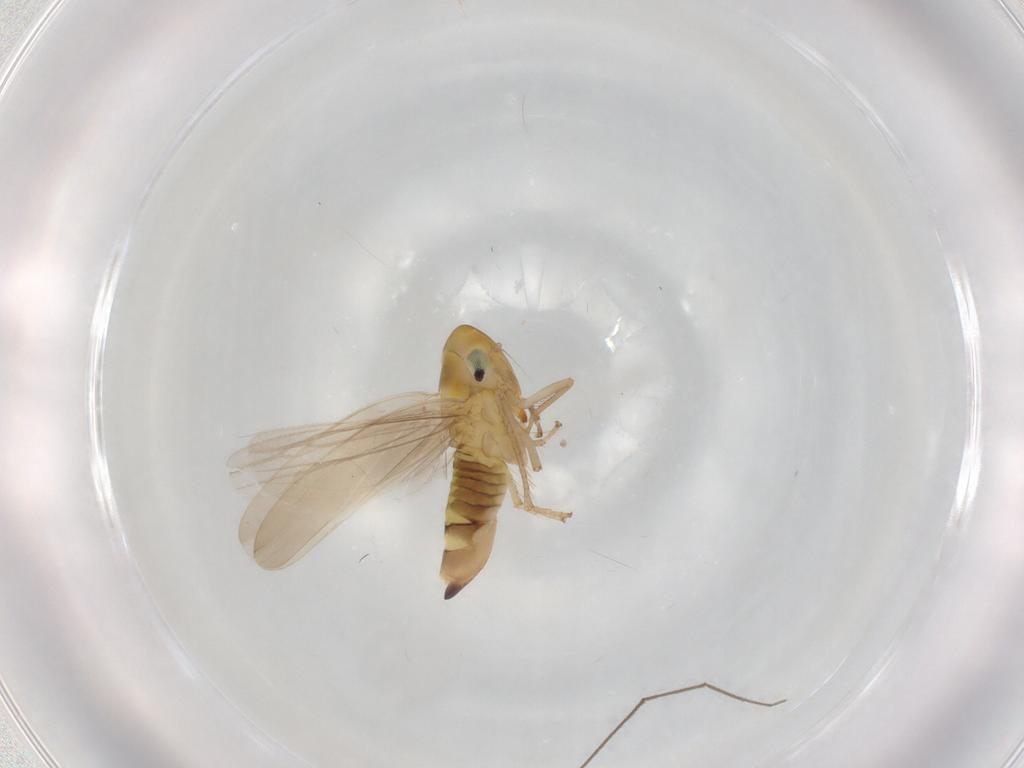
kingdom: Animalia
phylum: Arthropoda
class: Insecta
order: Hemiptera
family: Cicadellidae
